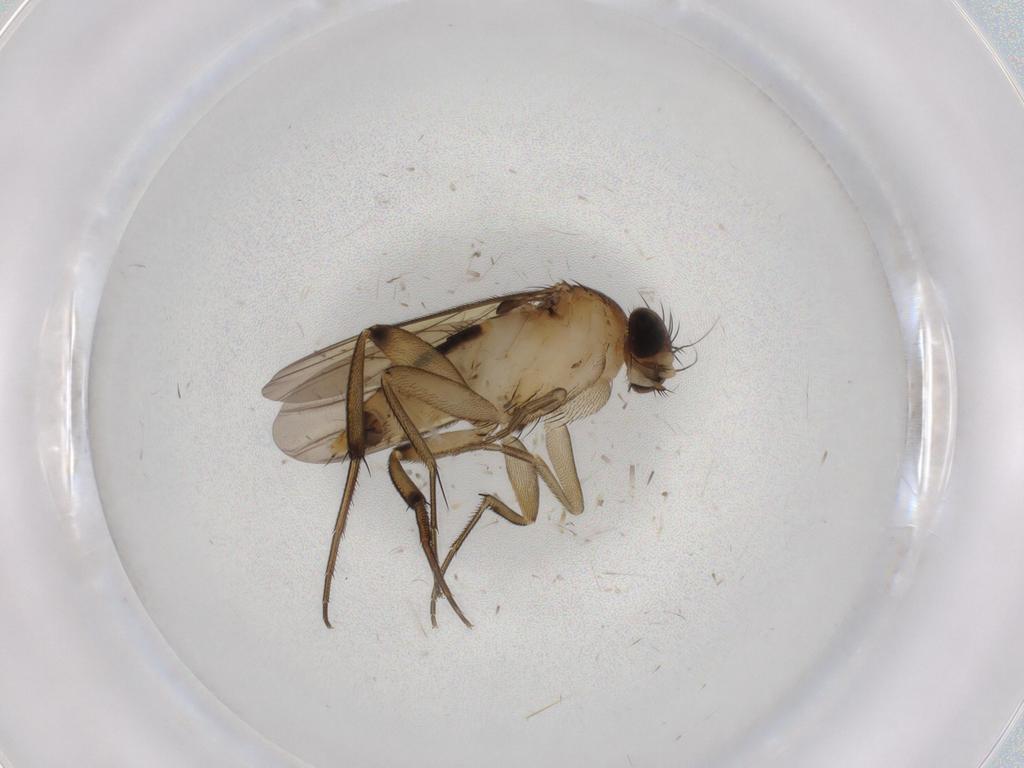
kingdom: Animalia
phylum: Arthropoda
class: Insecta
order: Diptera
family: Phoridae
